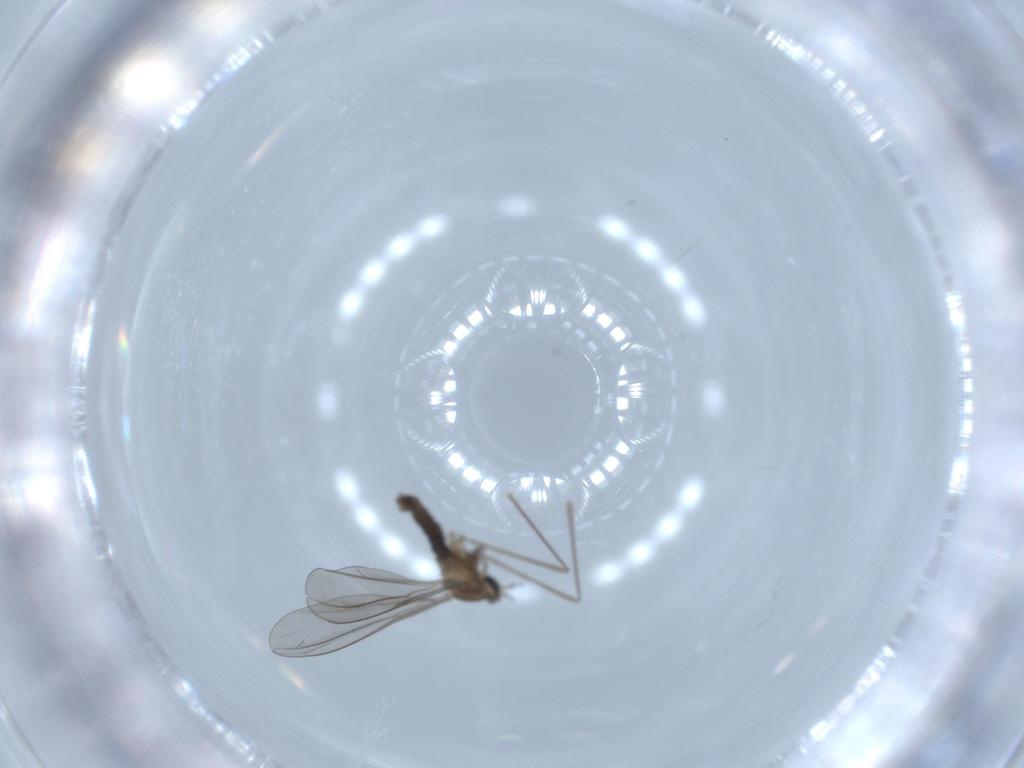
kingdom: Animalia
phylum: Arthropoda
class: Insecta
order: Diptera
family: Cecidomyiidae
